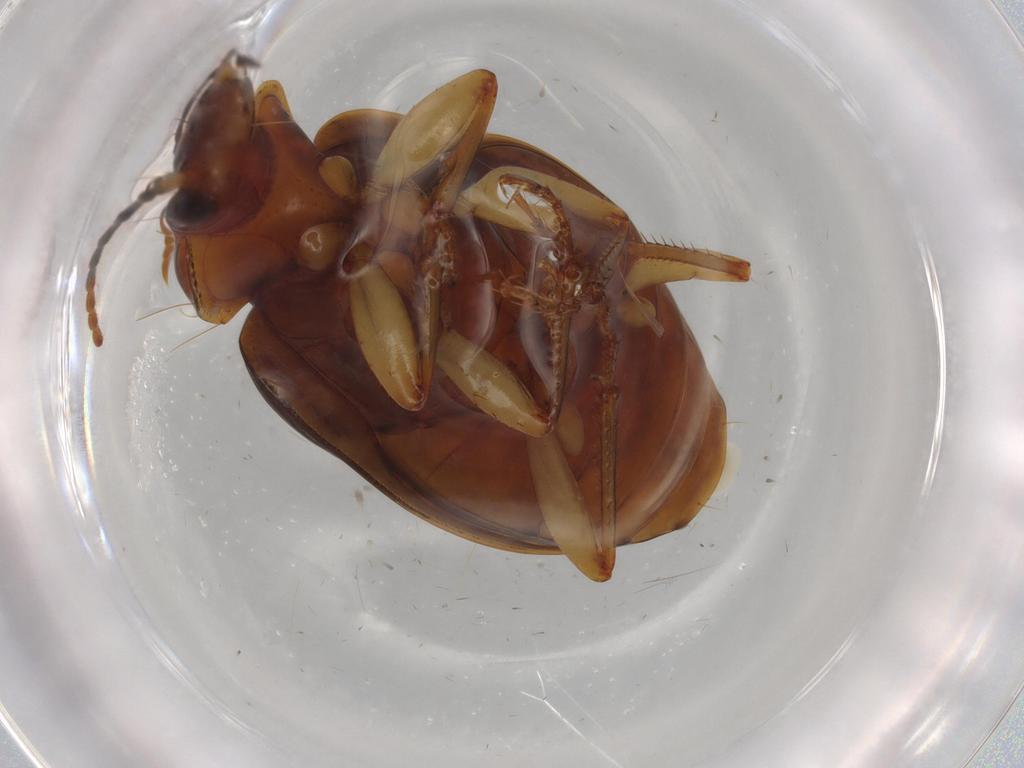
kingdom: Animalia
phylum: Arthropoda
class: Insecta
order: Coleoptera
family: Carabidae
